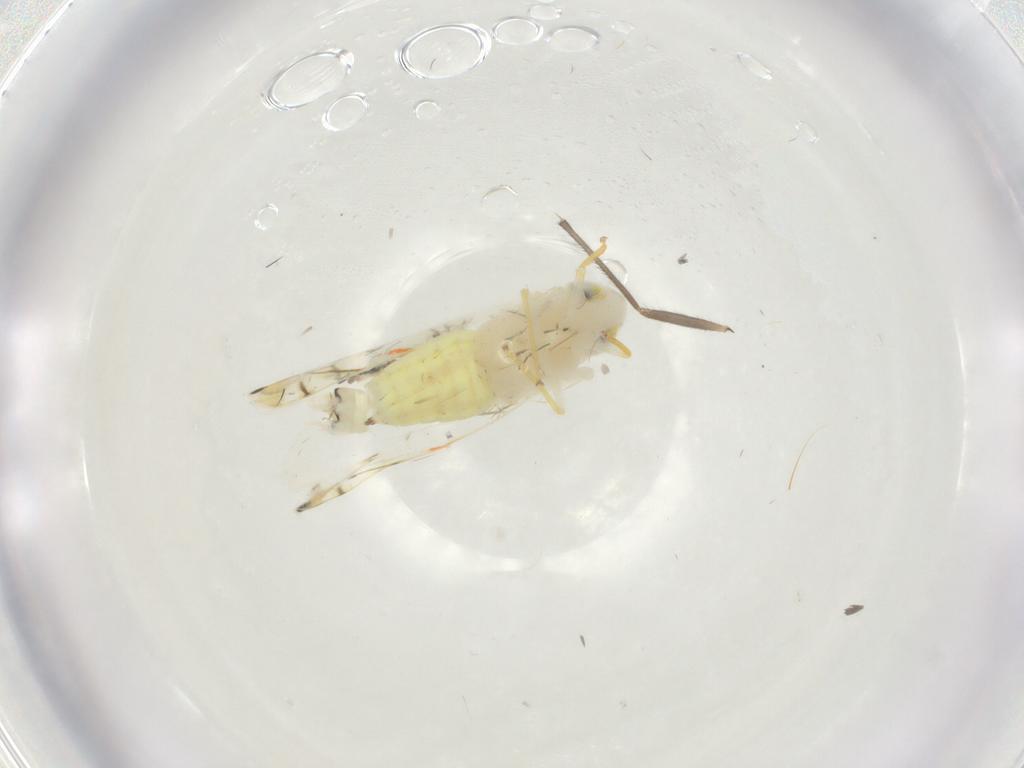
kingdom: Animalia
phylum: Arthropoda
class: Insecta
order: Hemiptera
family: Cicadellidae
